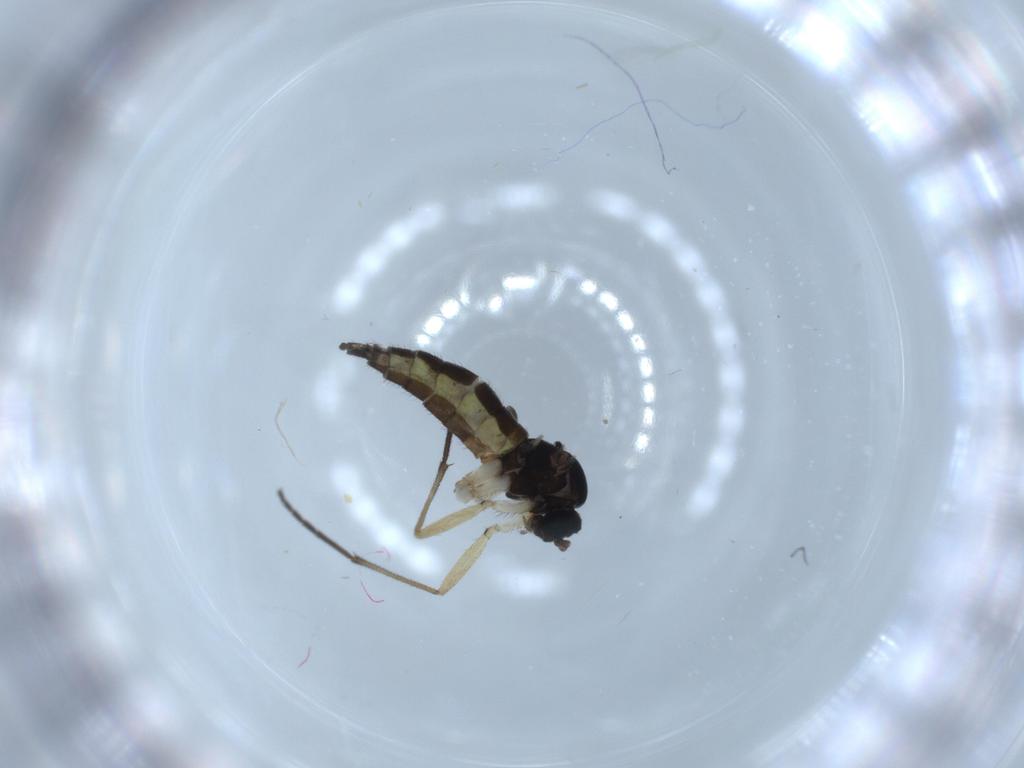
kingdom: Animalia
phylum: Arthropoda
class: Insecta
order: Diptera
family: Sciaridae
